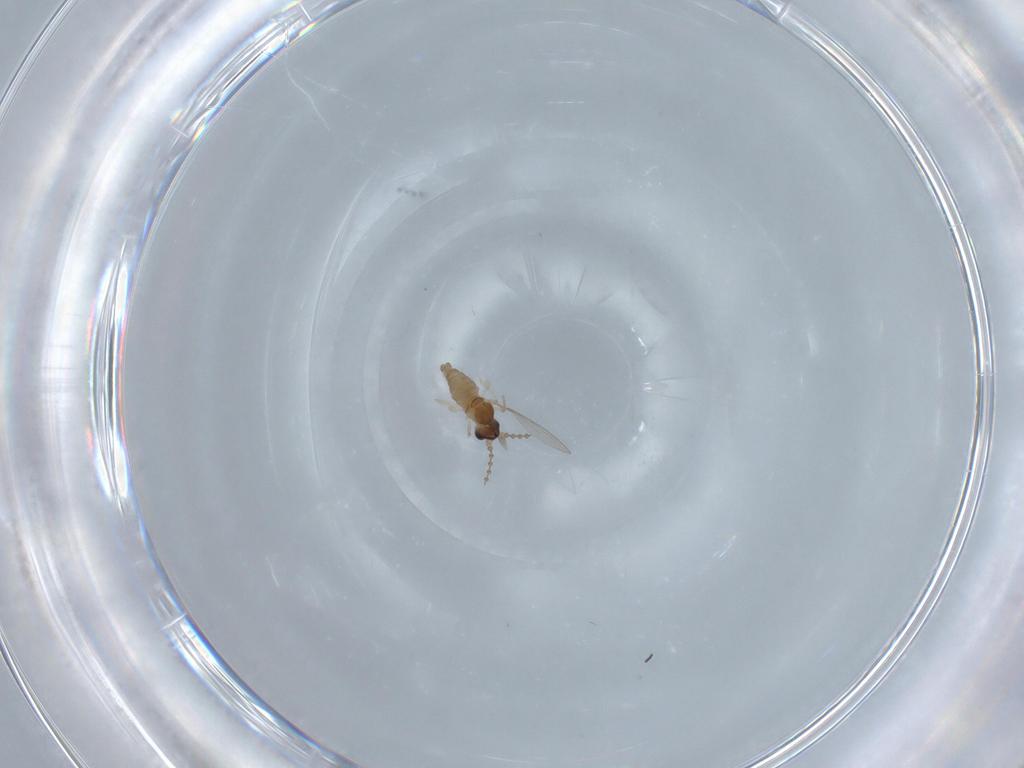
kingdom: Animalia
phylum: Arthropoda
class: Insecta
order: Diptera
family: Cecidomyiidae
